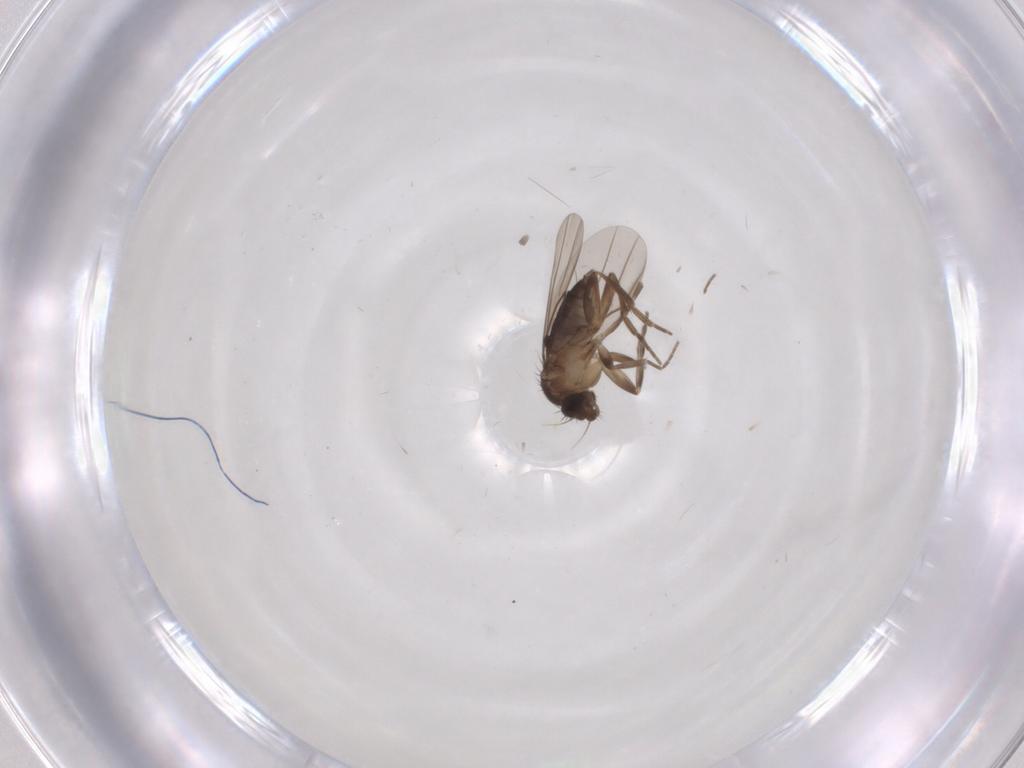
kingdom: Animalia
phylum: Arthropoda
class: Insecta
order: Diptera
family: Phoridae
